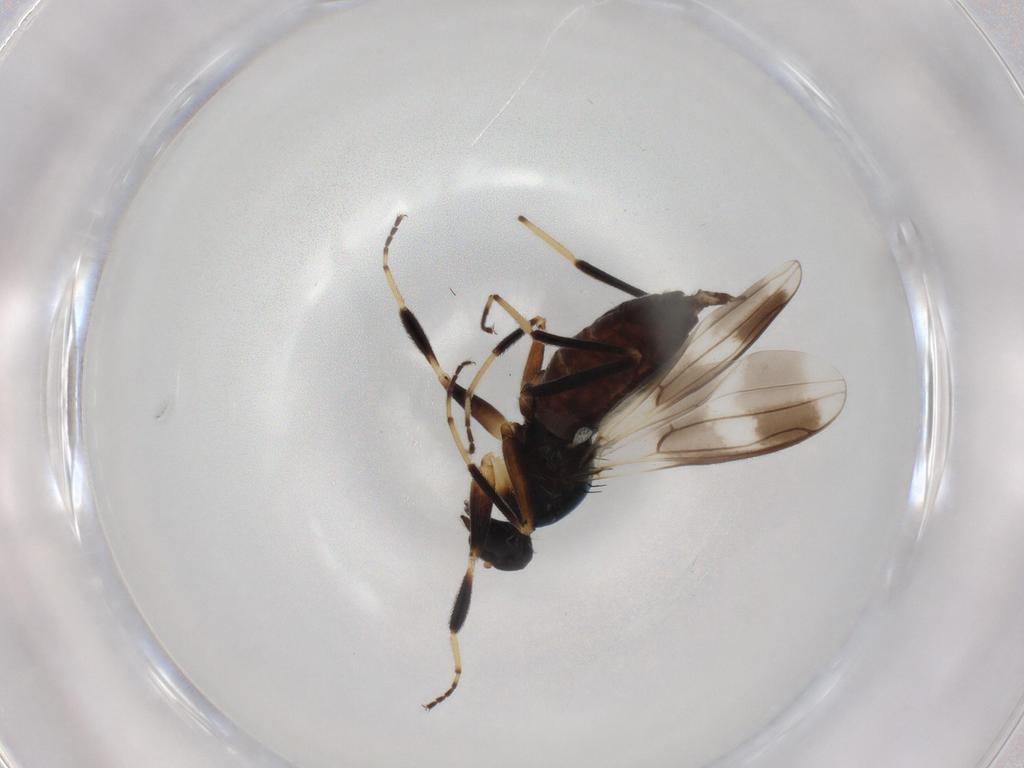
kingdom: Animalia
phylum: Arthropoda
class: Insecta
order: Diptera
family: Hybotidae
